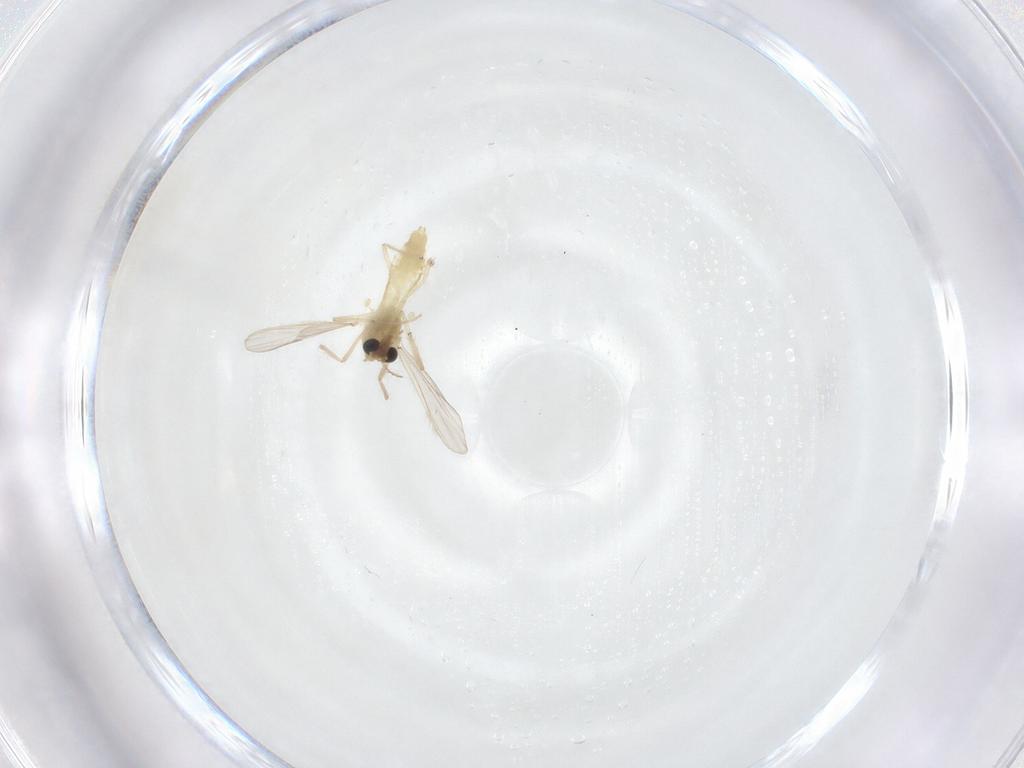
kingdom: Animalia
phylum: Arthropoda
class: Insecta
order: Diptera
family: Chironomidae
